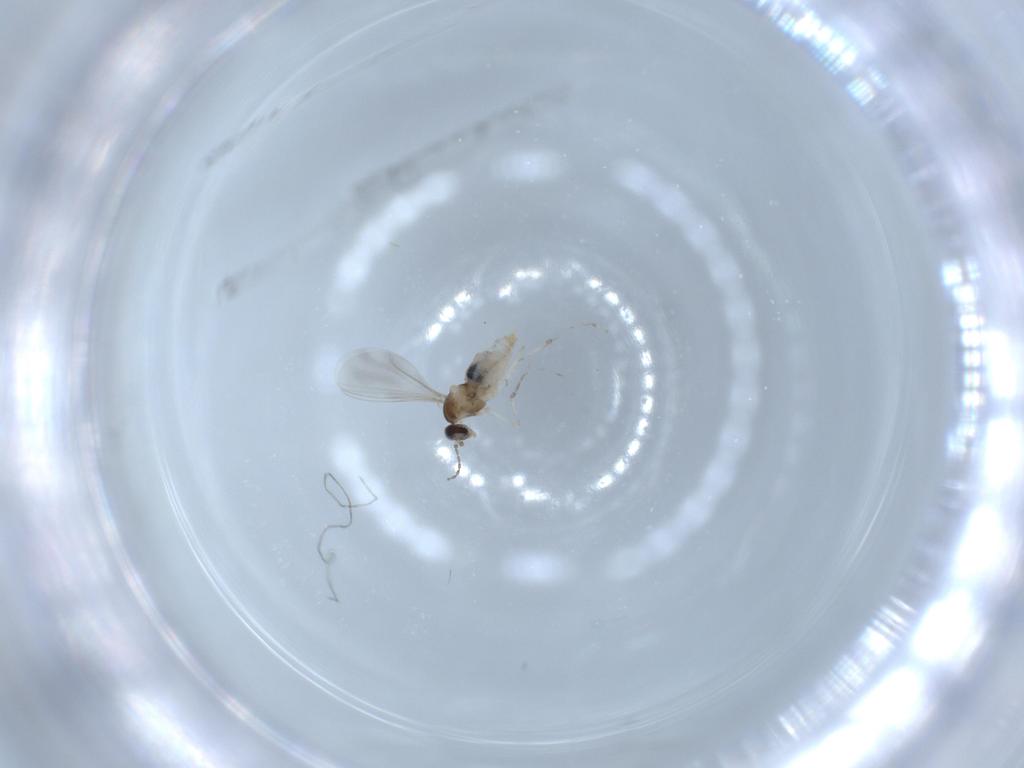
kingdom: Animalia
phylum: Arthropoda
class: Insecta
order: Diptera
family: Cecidomyiidae
